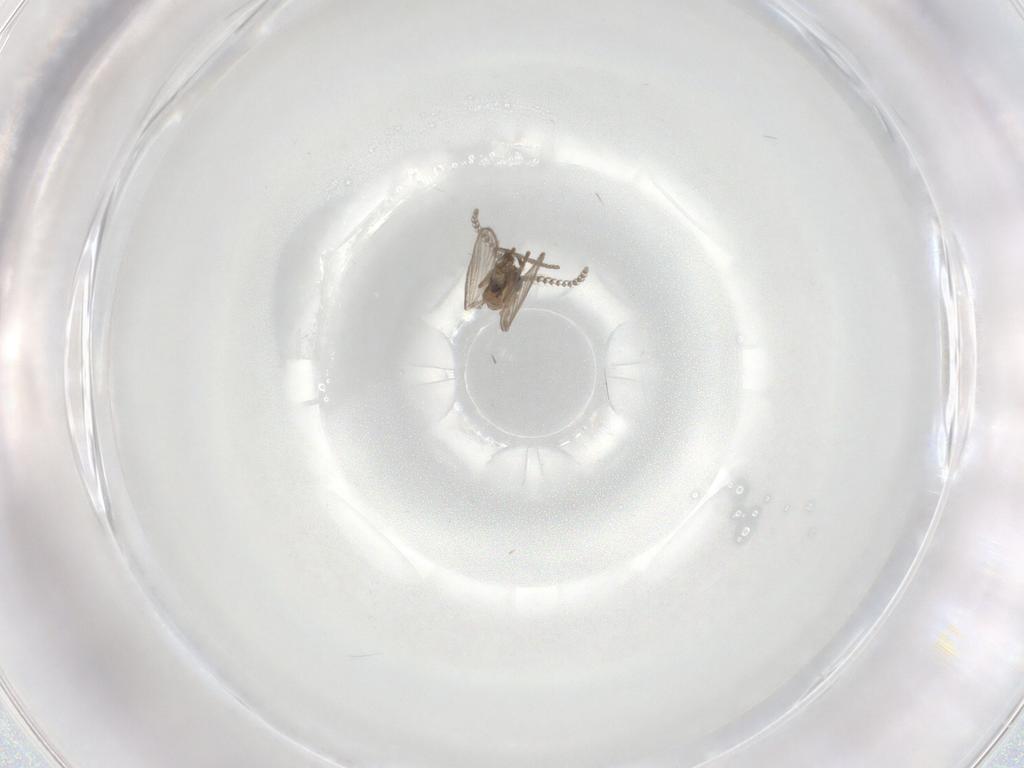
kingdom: Animalia
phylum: Arthropoda
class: Insecta
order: Diptera
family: Psychodidae
